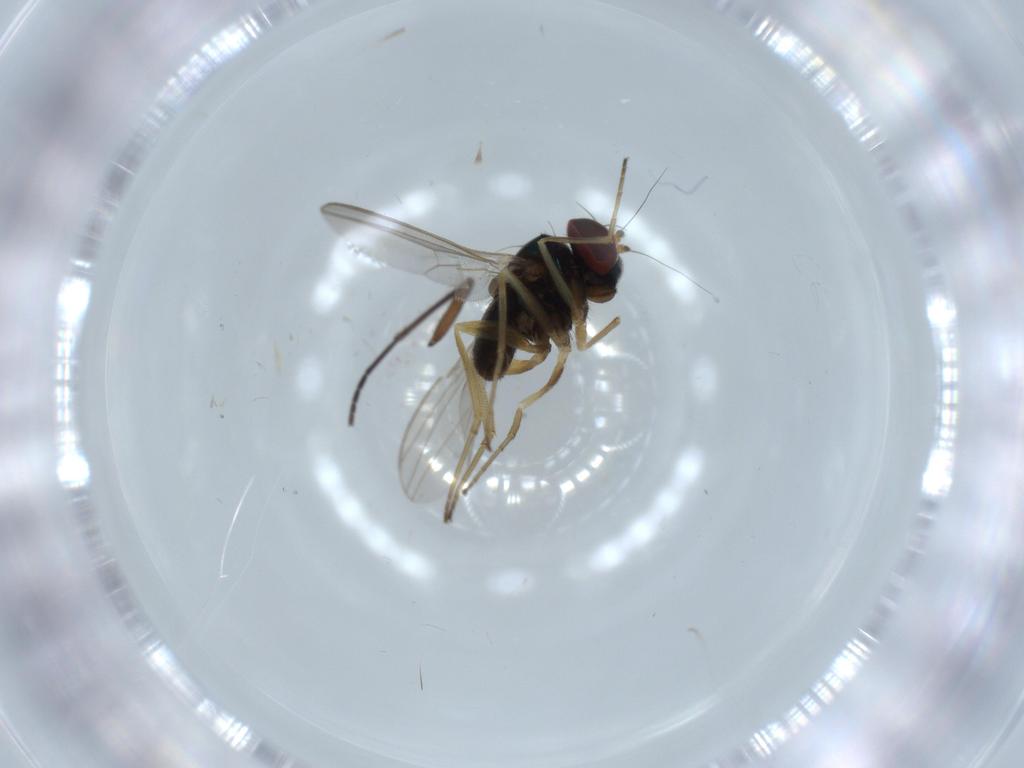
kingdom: Animalia
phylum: Arthropoda
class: Insecta
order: Diptera
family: Sciaridae
